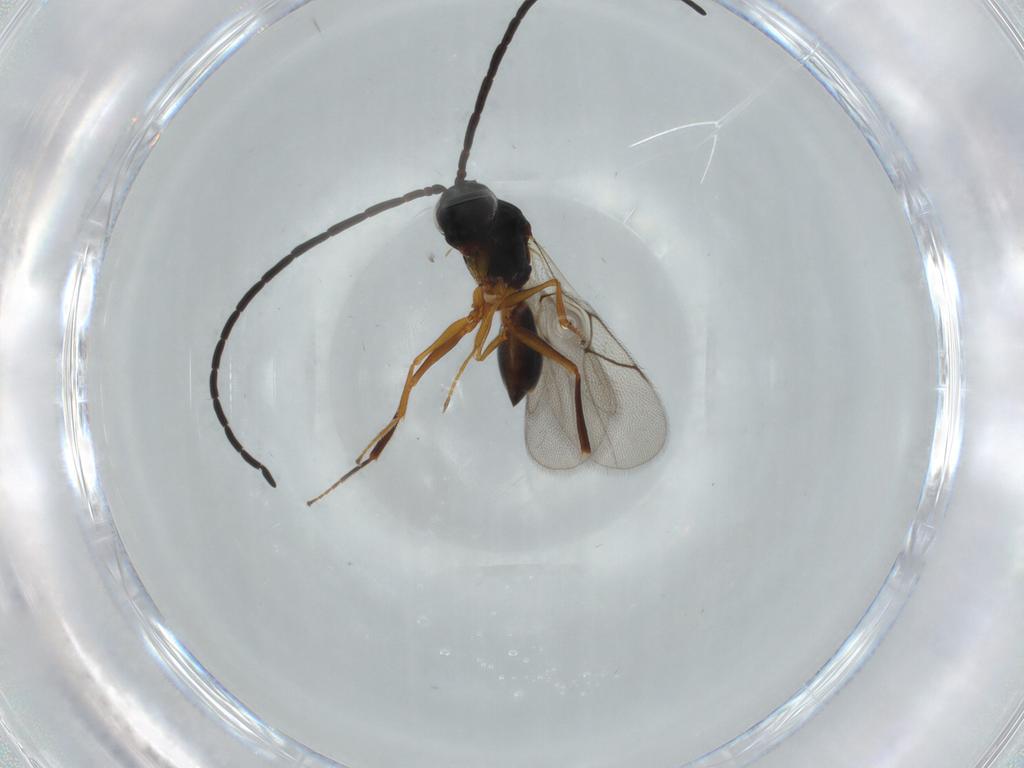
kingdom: Animalia
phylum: Arthropoda
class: Insecta
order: Hymenoptera
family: Figitidae
